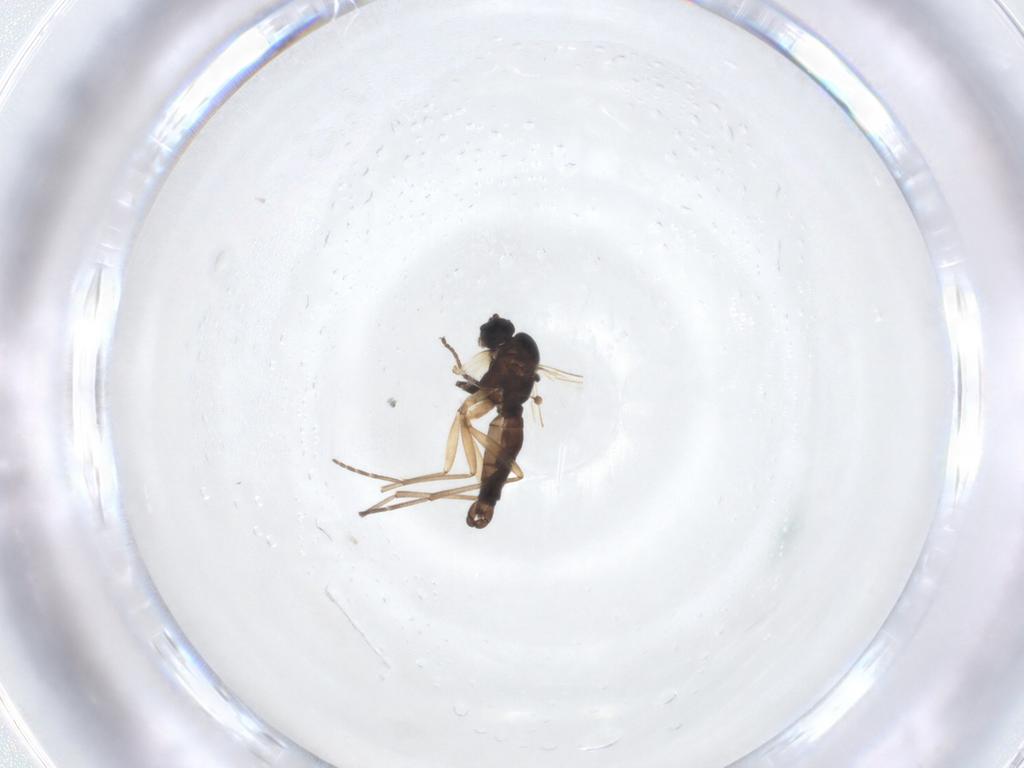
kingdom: Animalia
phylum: Arthropoda
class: Insecta
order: Diptera
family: Sciaridae
